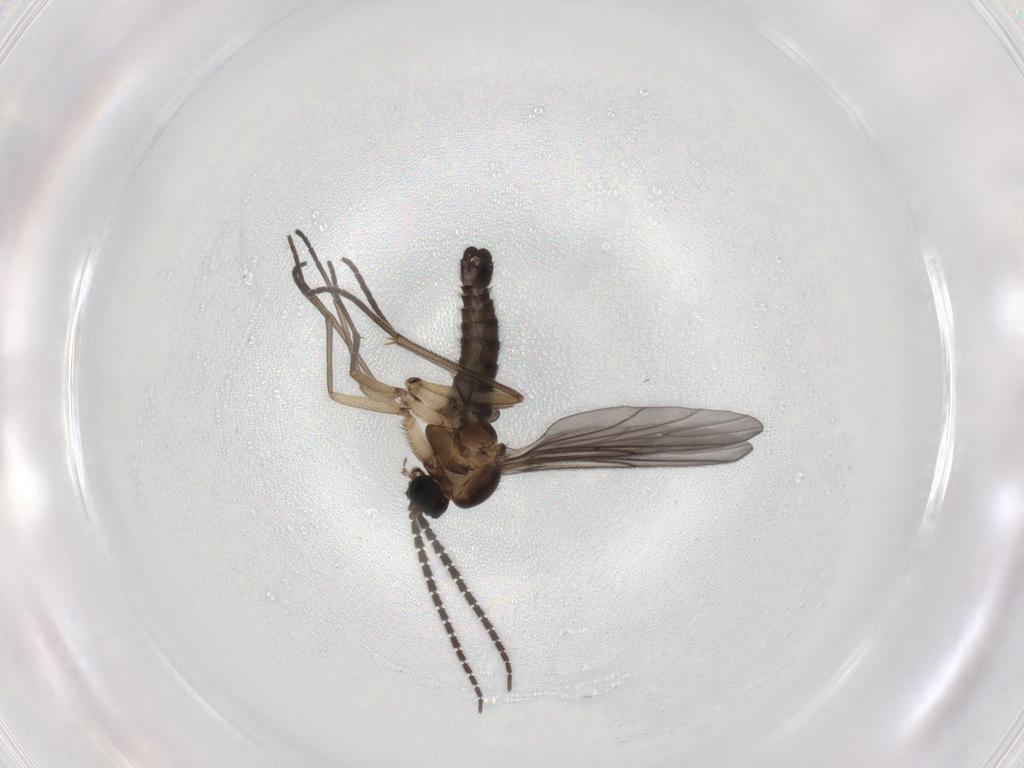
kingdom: Animalia
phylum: Arthropoda
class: Insecta
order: Diptera
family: Sciaridae
